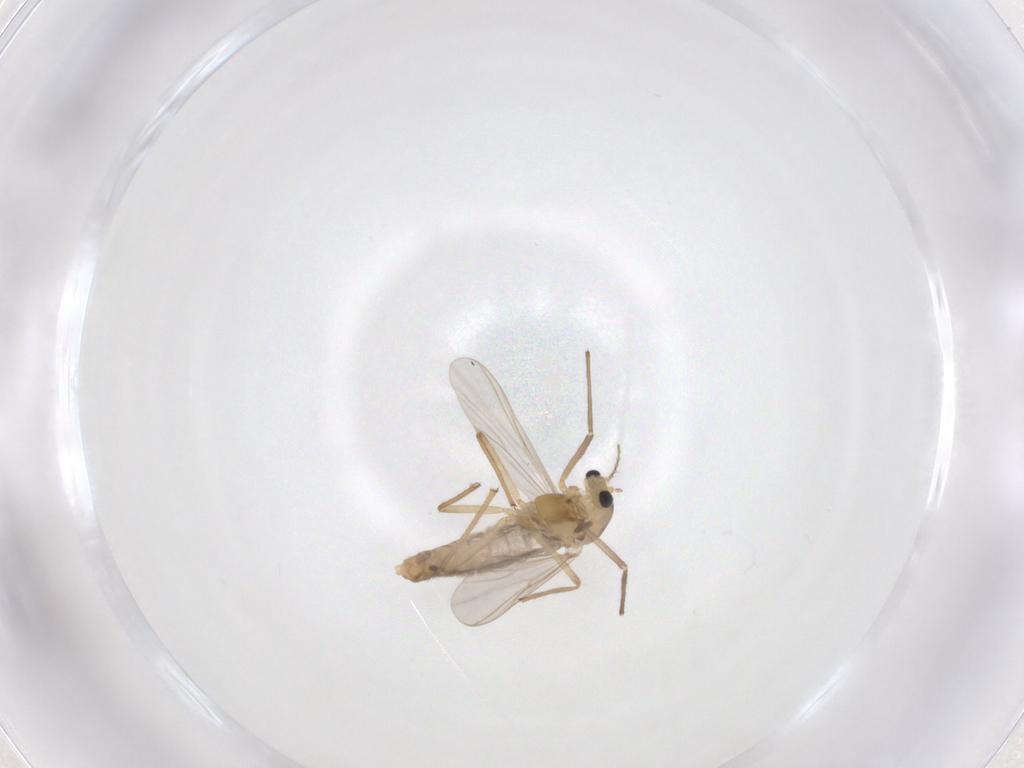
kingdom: Animalia
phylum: Arthropoda
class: Insecta
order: Diptera
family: Chironomidae
